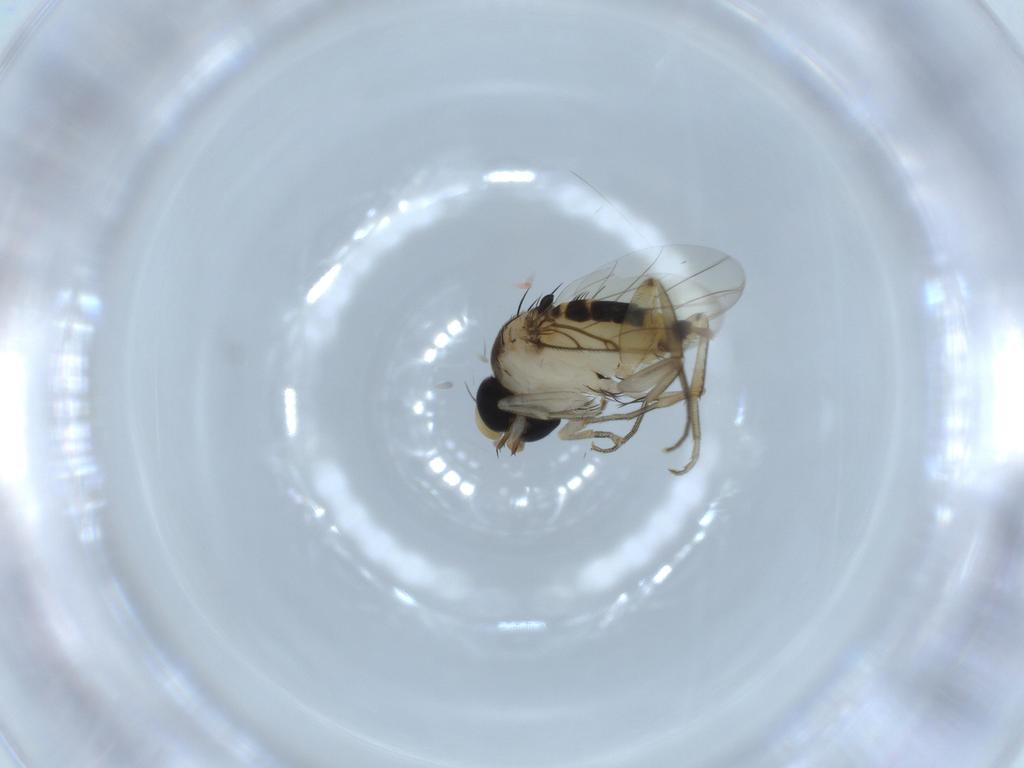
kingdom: Animalia
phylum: Arthropoda
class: Insecta
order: Diptera
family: Phoridae
